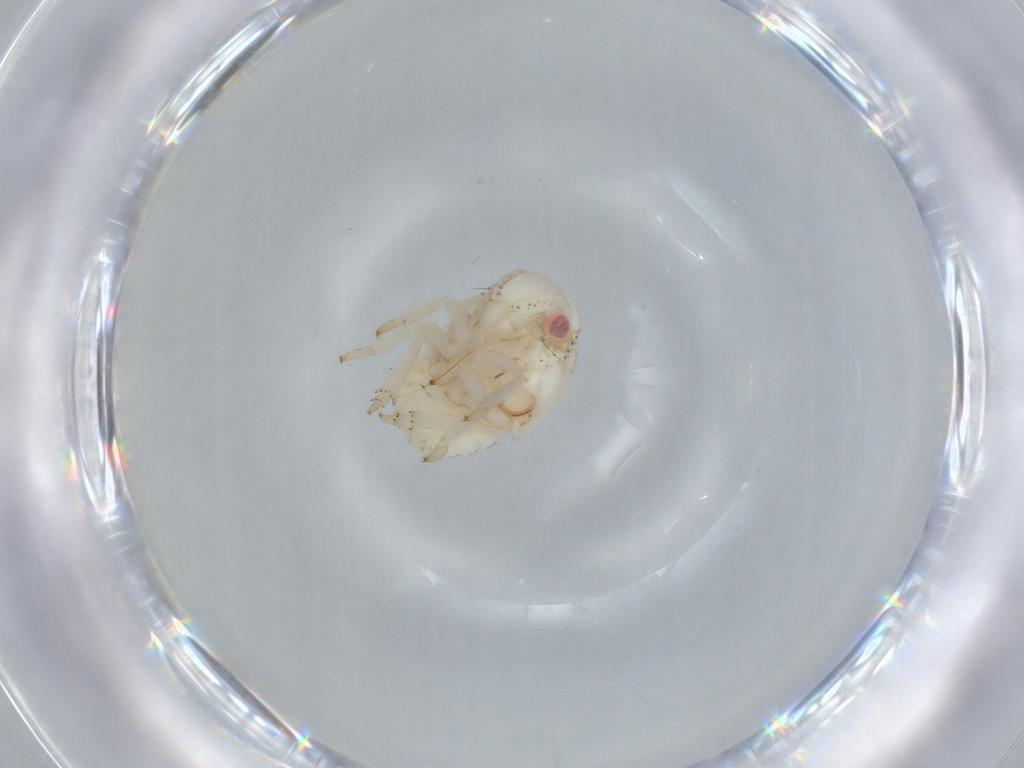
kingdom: Animalia
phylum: Arthropoda
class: Insecta
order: Hemiptera
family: Acanaloniidae
